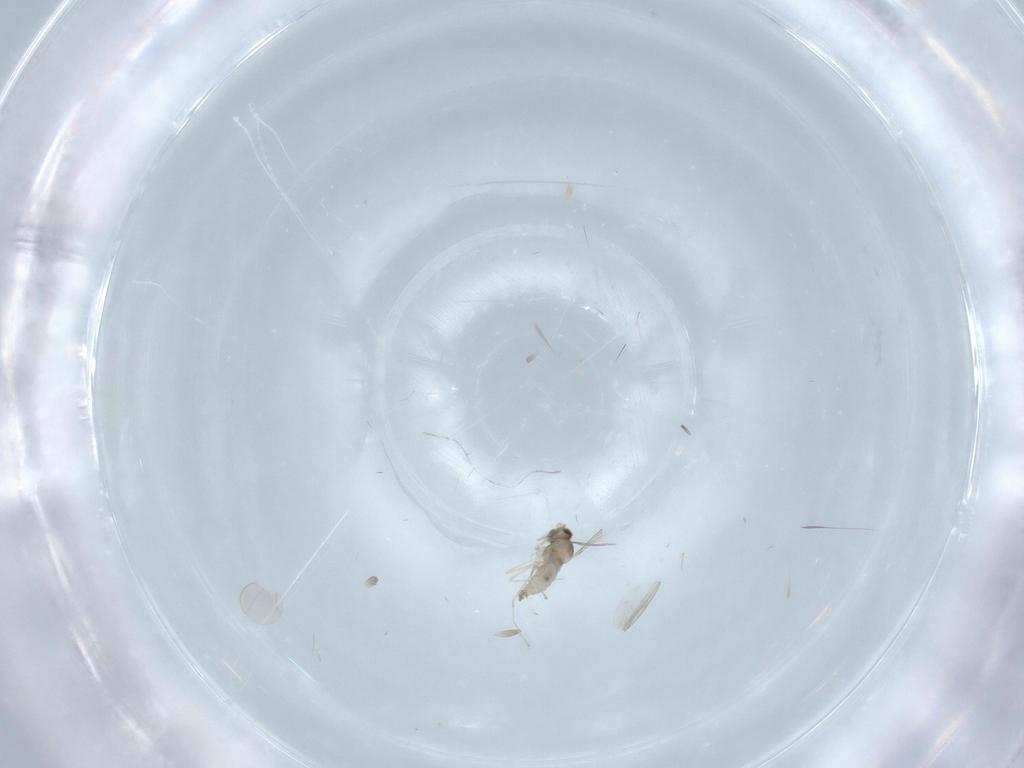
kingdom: Animalia
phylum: Arthropoda
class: Insecta
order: Diptera
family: Cecidomyiidae
